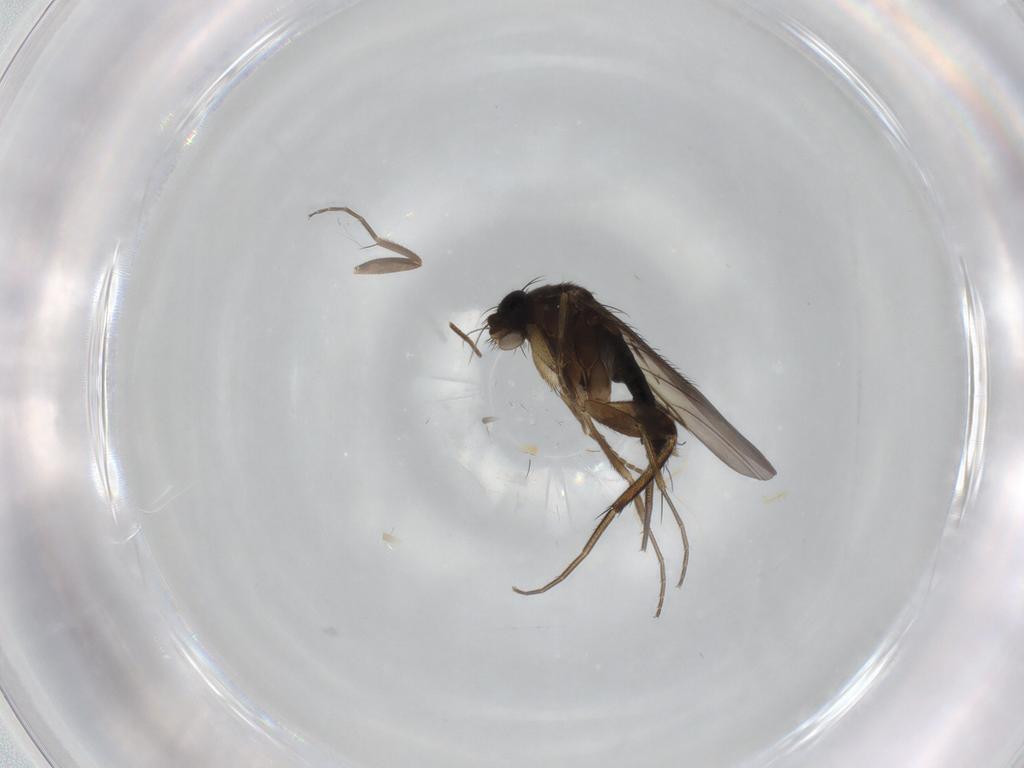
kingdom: Animalia
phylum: Arthropoda
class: Insecta
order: Diptera
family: Phoridae
